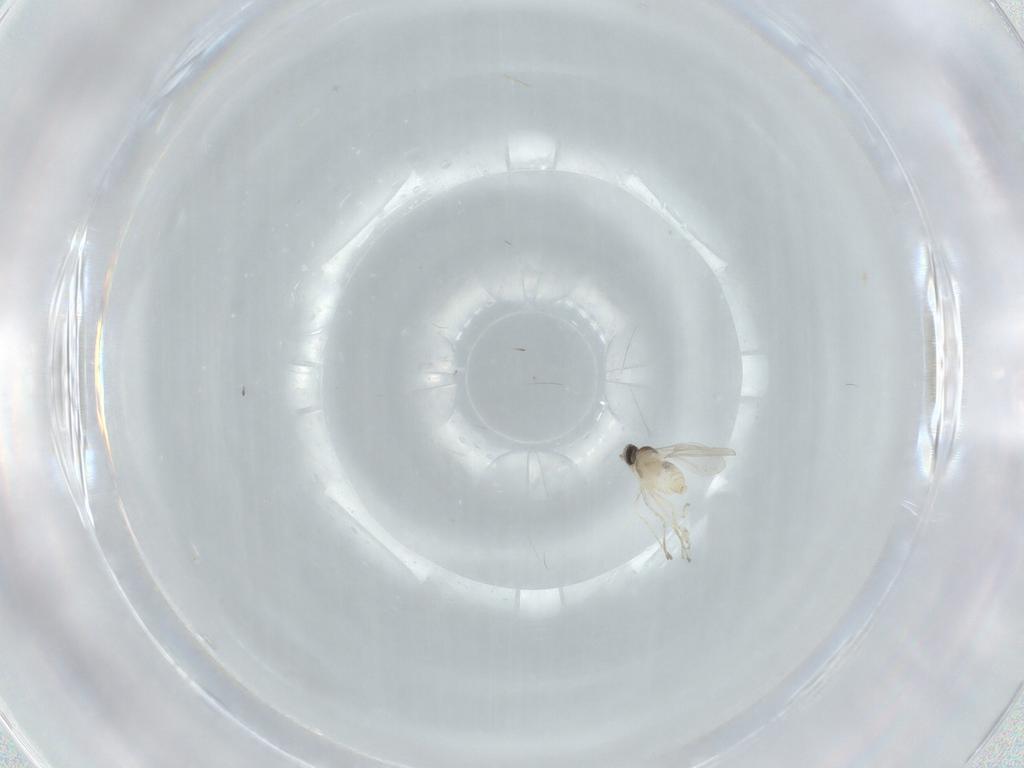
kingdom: Animalia
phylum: Arthropoda
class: Insecta
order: Diptera
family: Cecidomyiidae
